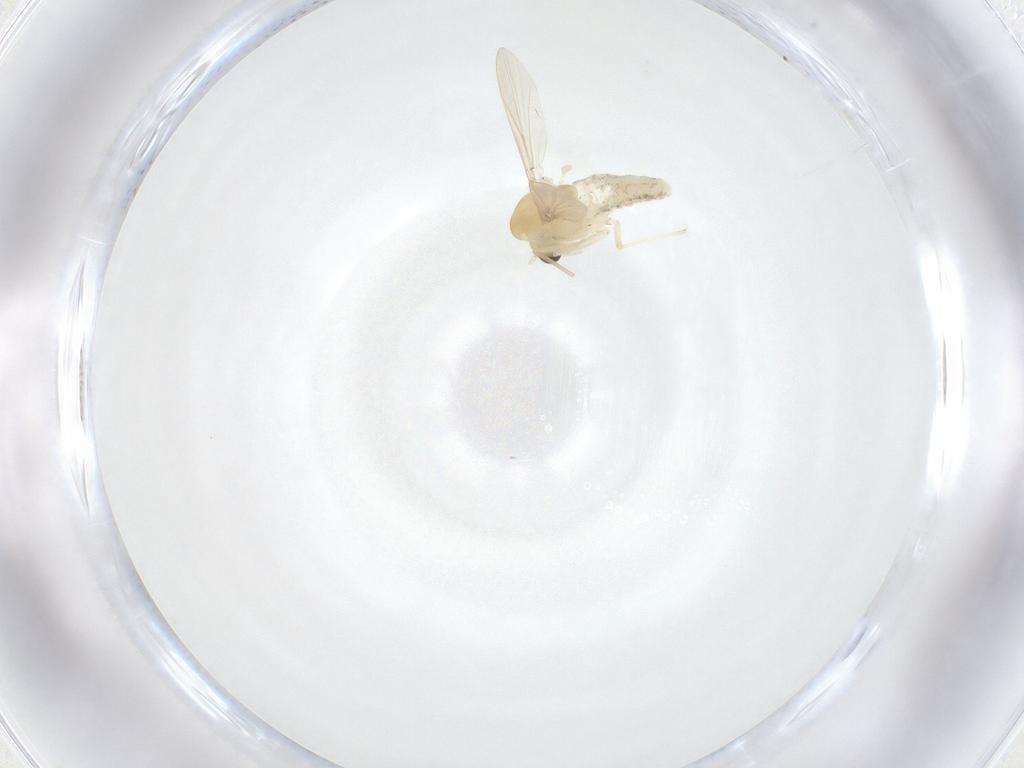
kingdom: Animalia
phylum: Arthropoda
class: Insecta
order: Diptera
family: Chironomidae
